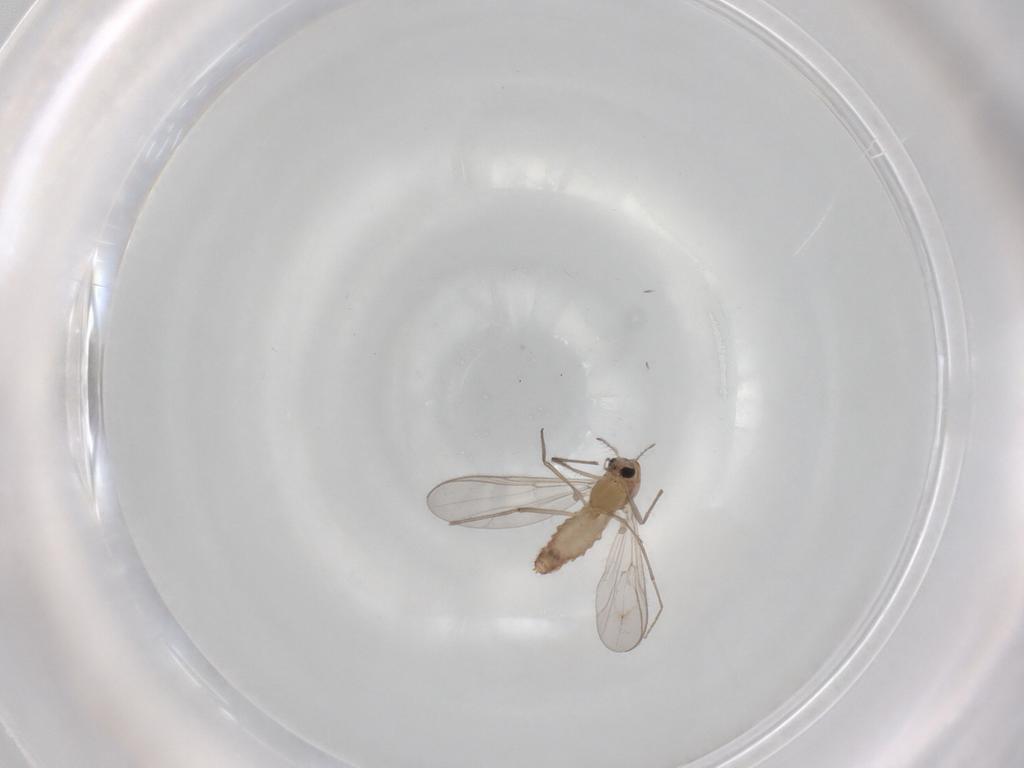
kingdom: Animalia
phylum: Arthropoda
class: Insecta
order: Diptera
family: Chironomidae
